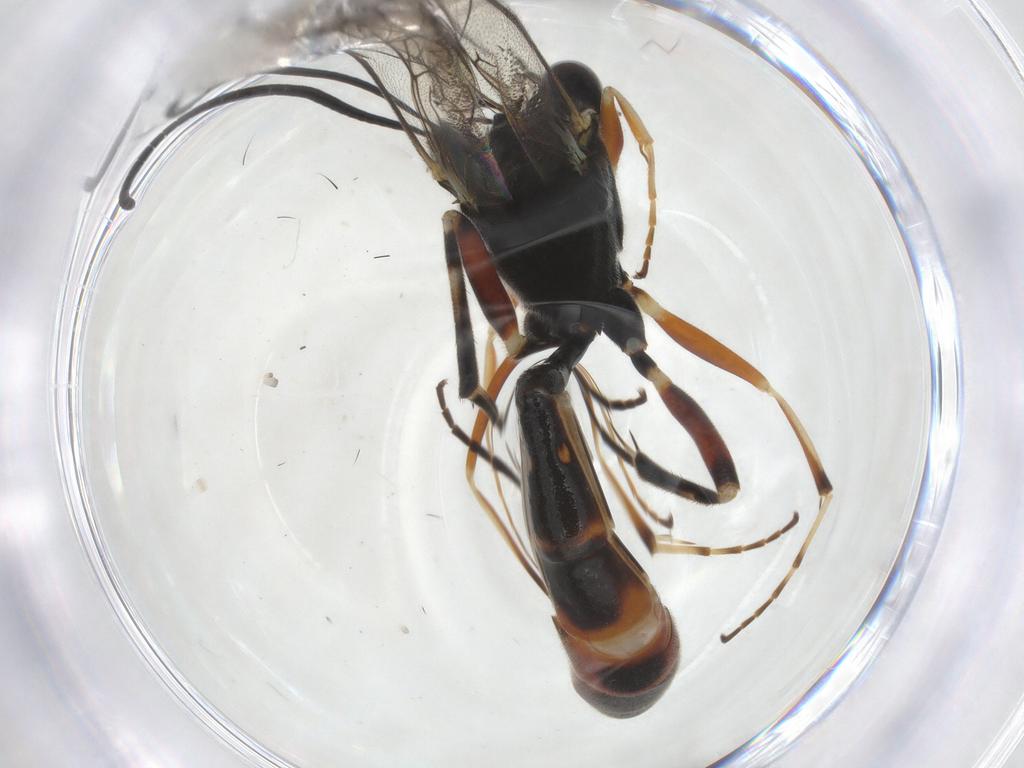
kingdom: Animalia
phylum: Arthropoda
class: Insecta
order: Hymenoptera
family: Ichneumonidae
